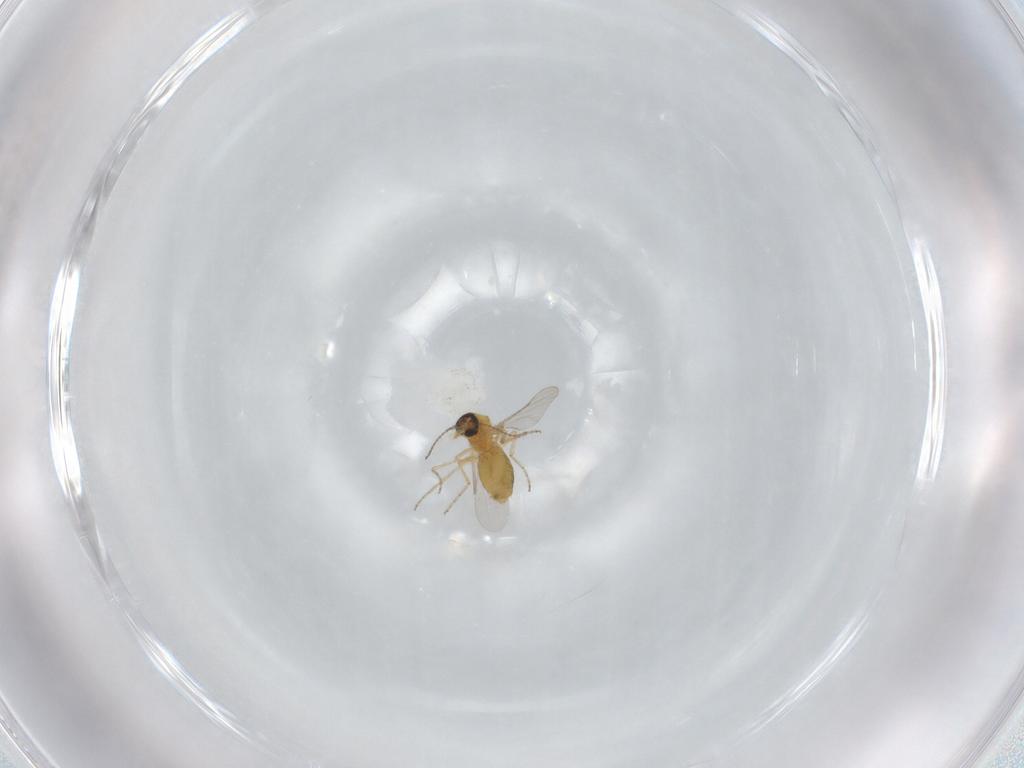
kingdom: Animalia
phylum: Arthropoda
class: Insecta
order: Diptera
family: Ceratopogonidae
